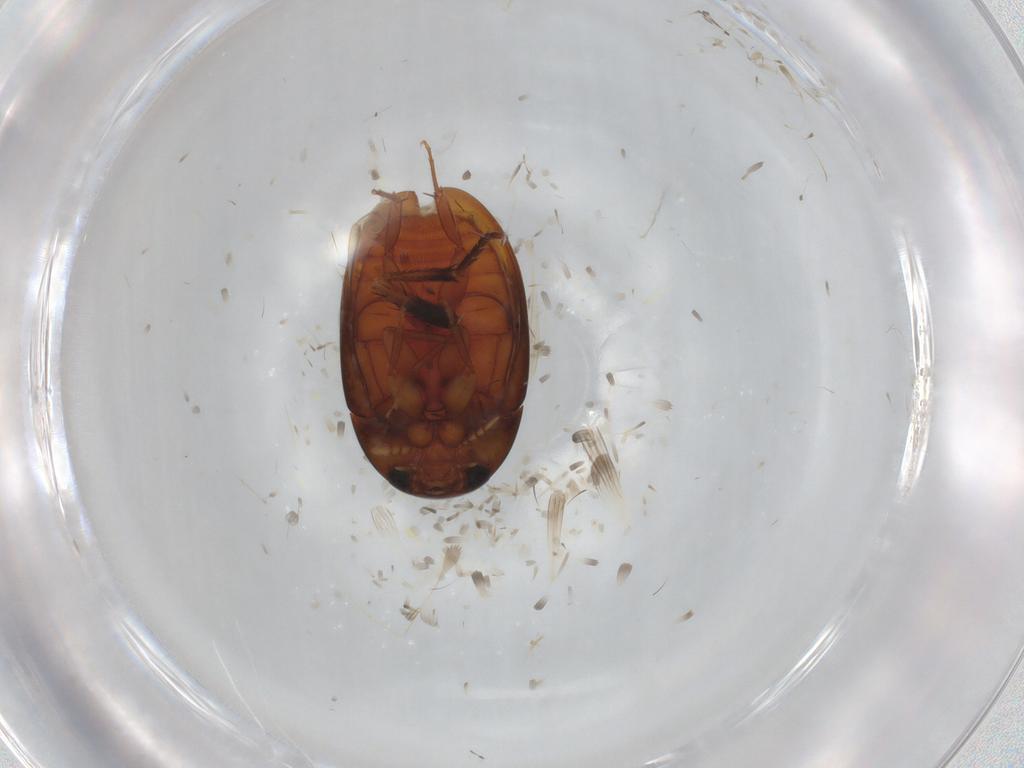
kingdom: Animalia
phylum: Arthropoda
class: Insecta
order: Coleoptera
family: Phalacridae
